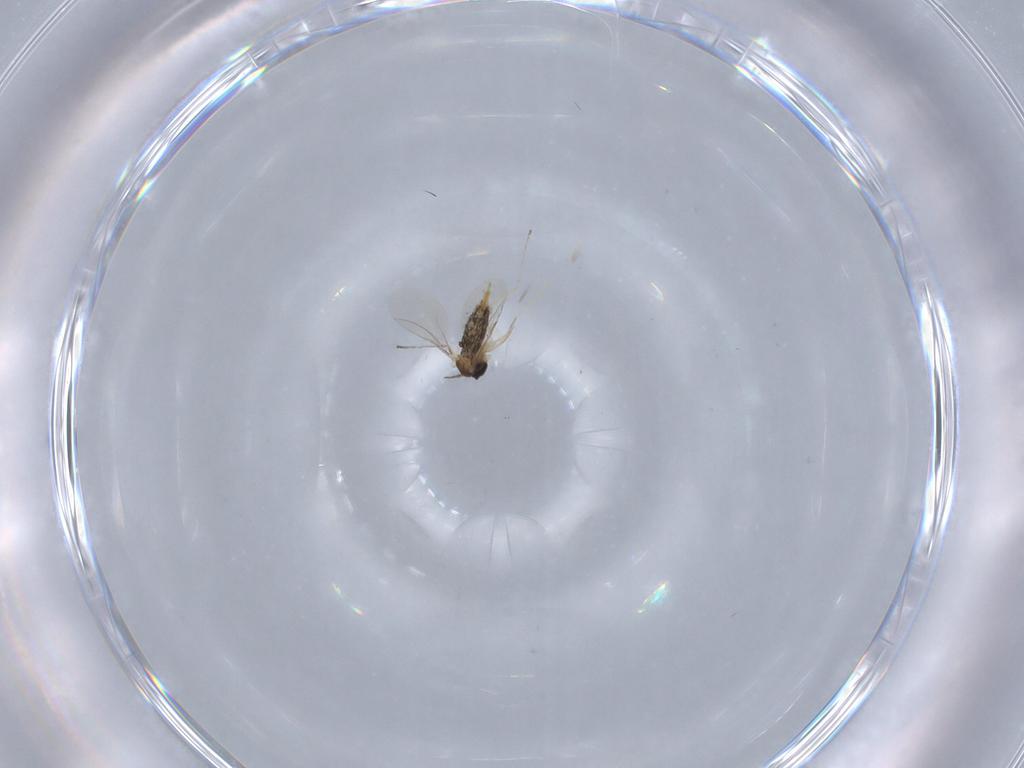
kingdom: Animalia
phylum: Arthropoda
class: Insecta
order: Diptera
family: Cecidomyiidae
